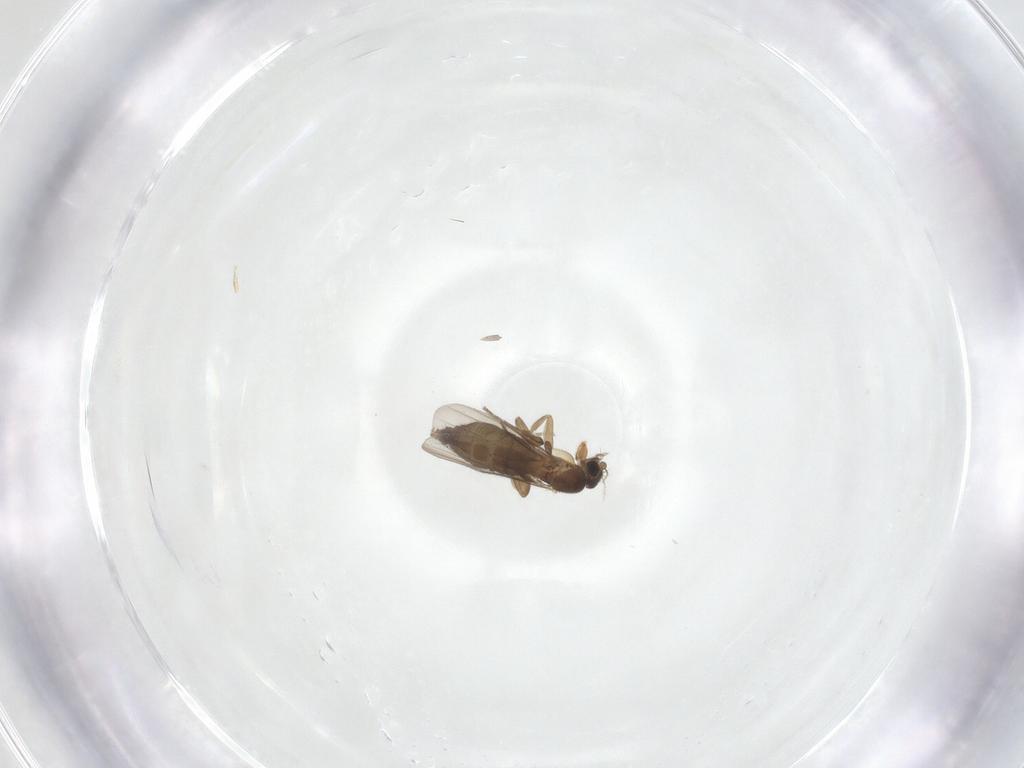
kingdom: Animalia
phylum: Arthropoda
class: Insecta
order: Diptera
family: Phoridae
